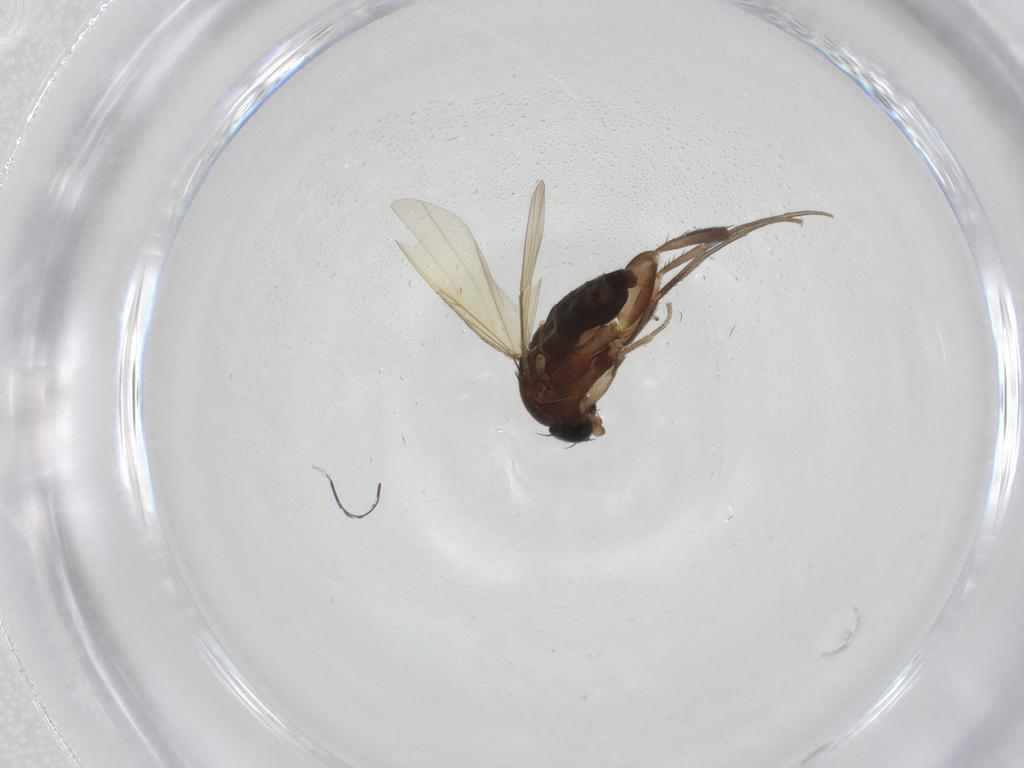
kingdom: Animalia
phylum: Arthropoda
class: Insecta
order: Diptera
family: Phoridae
